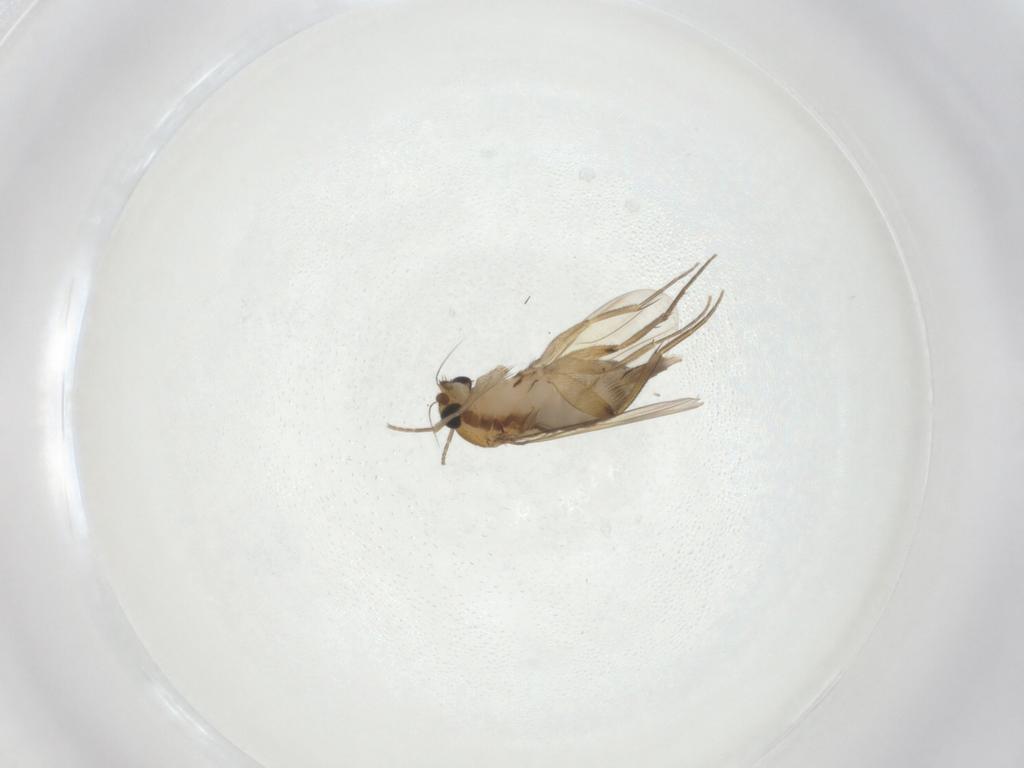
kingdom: Animalia
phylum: Arthropoda
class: Insecta
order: Diptera
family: Phoridae
